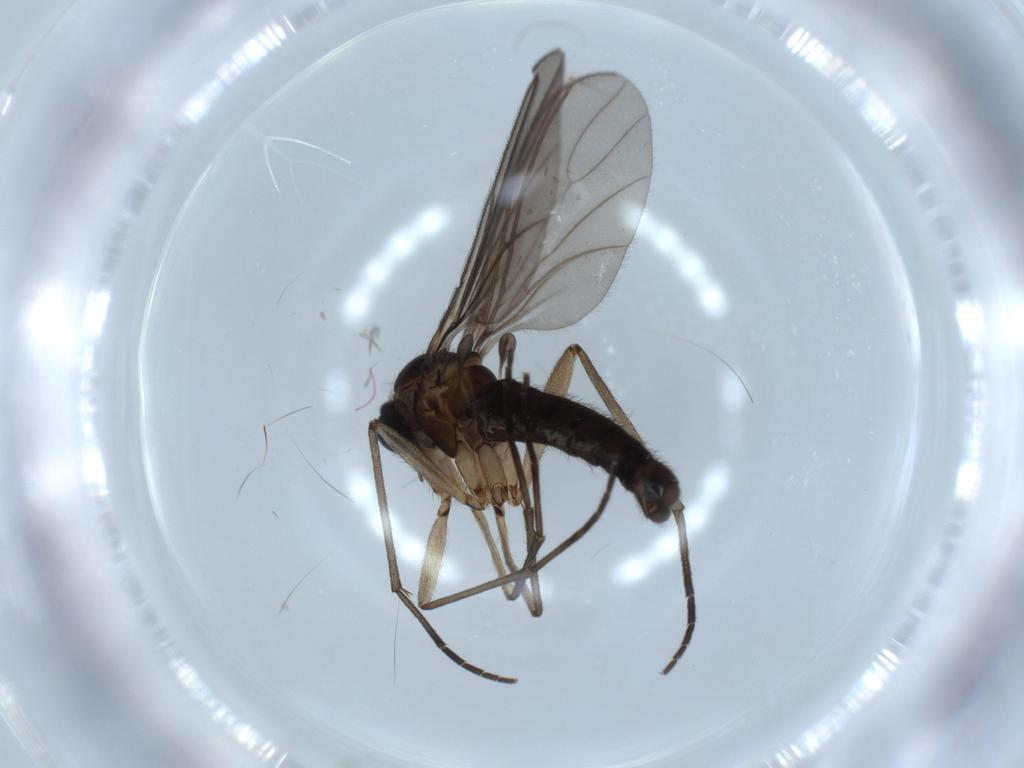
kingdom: Animalia
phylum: Arthropoda
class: Insecta
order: Diptera
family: Sciaridae
